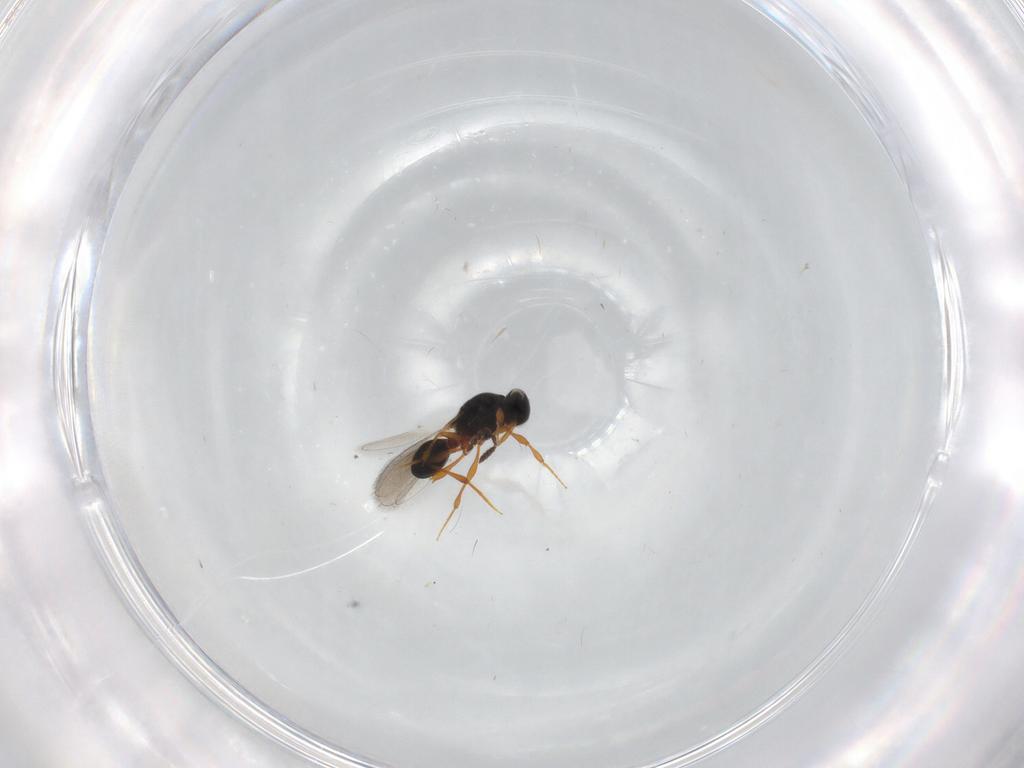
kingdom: Animalia
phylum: Arthropoda
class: Insecta
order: Hymenoptera
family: Platygastridae
